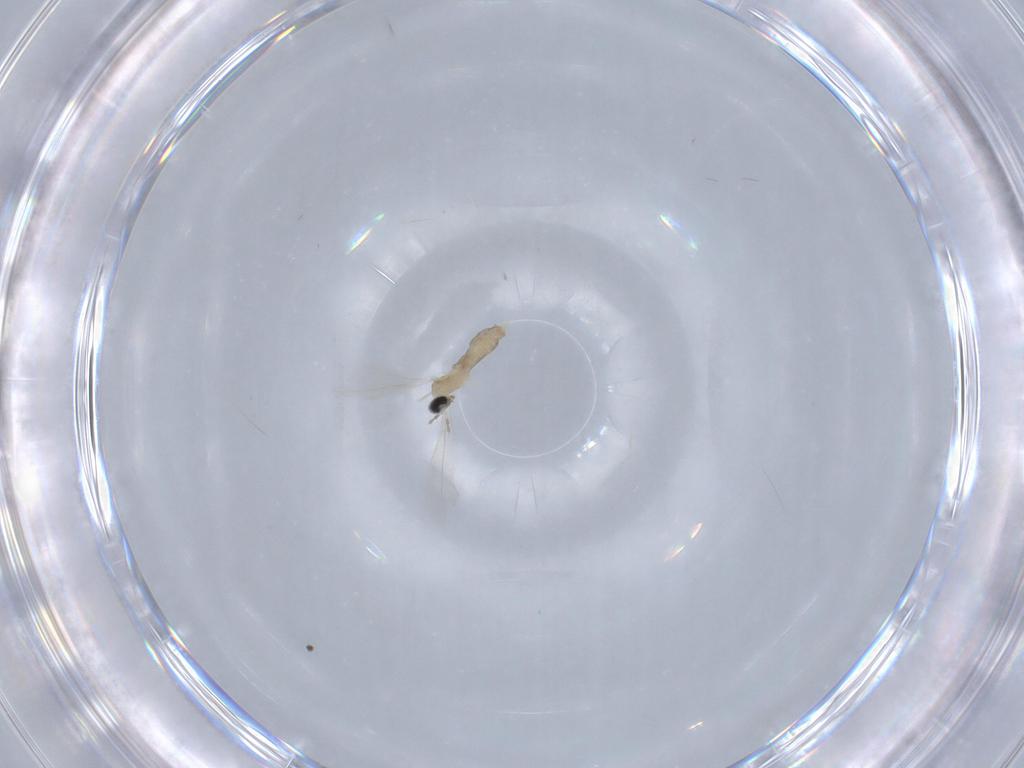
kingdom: Animalia
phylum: Arthropoda
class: Insecta
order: Diptera
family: Cecidomyiidae
